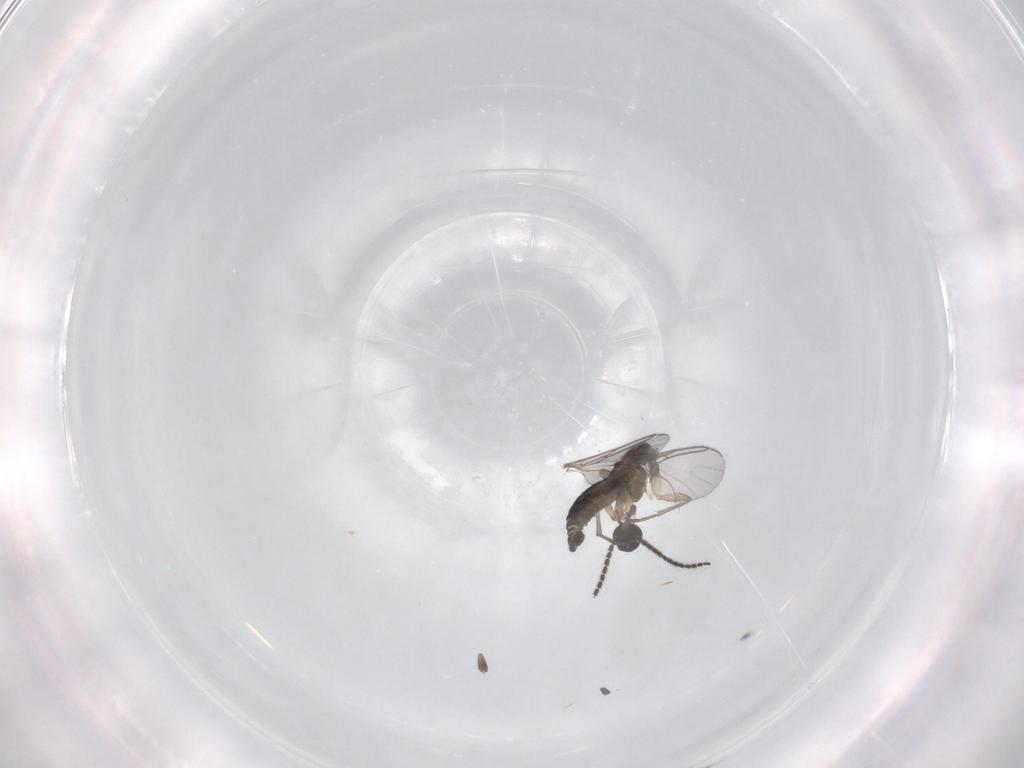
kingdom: Animalia
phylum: Arthropoda
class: Insecta
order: Diptera
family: Sciaridae
